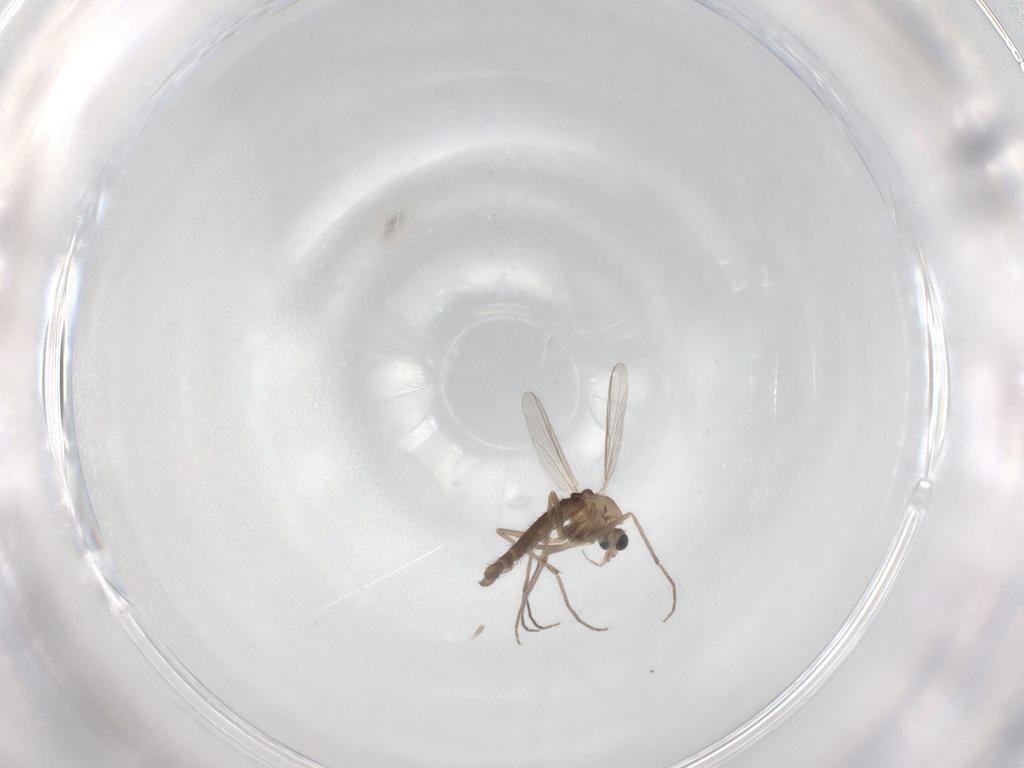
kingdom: Animalia
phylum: Arthropoda
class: Insecta
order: Diptera
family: Chironomidae
